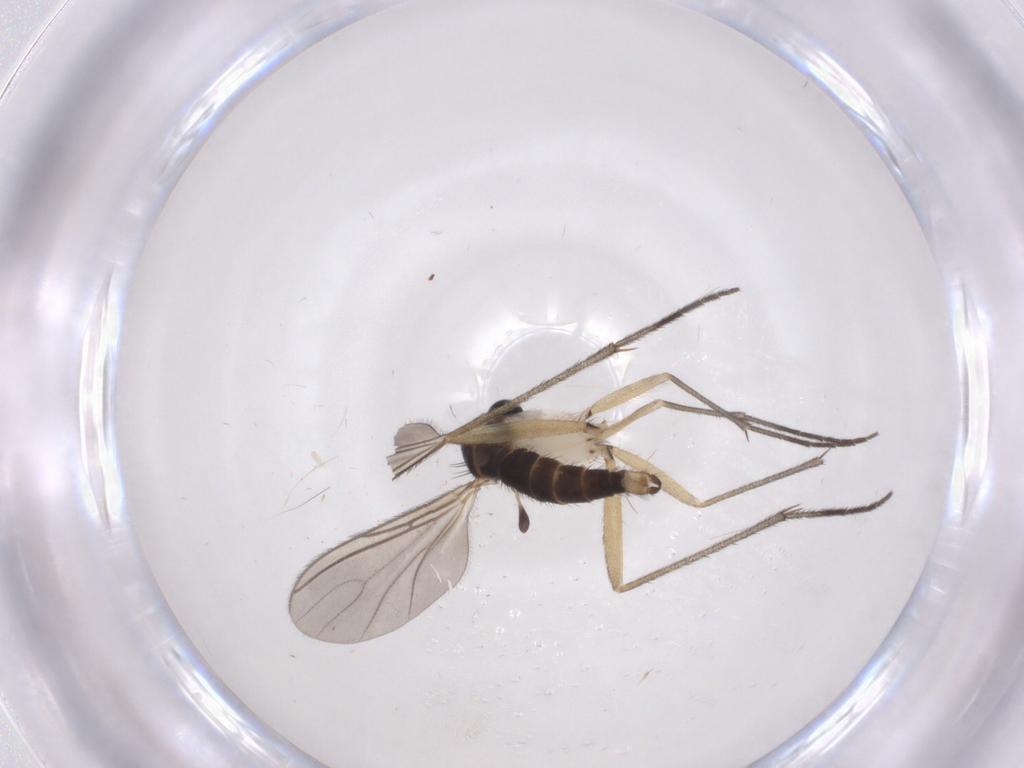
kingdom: Animalia
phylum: Arthropoda
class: Insecta
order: Diptera
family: Sciaridae
